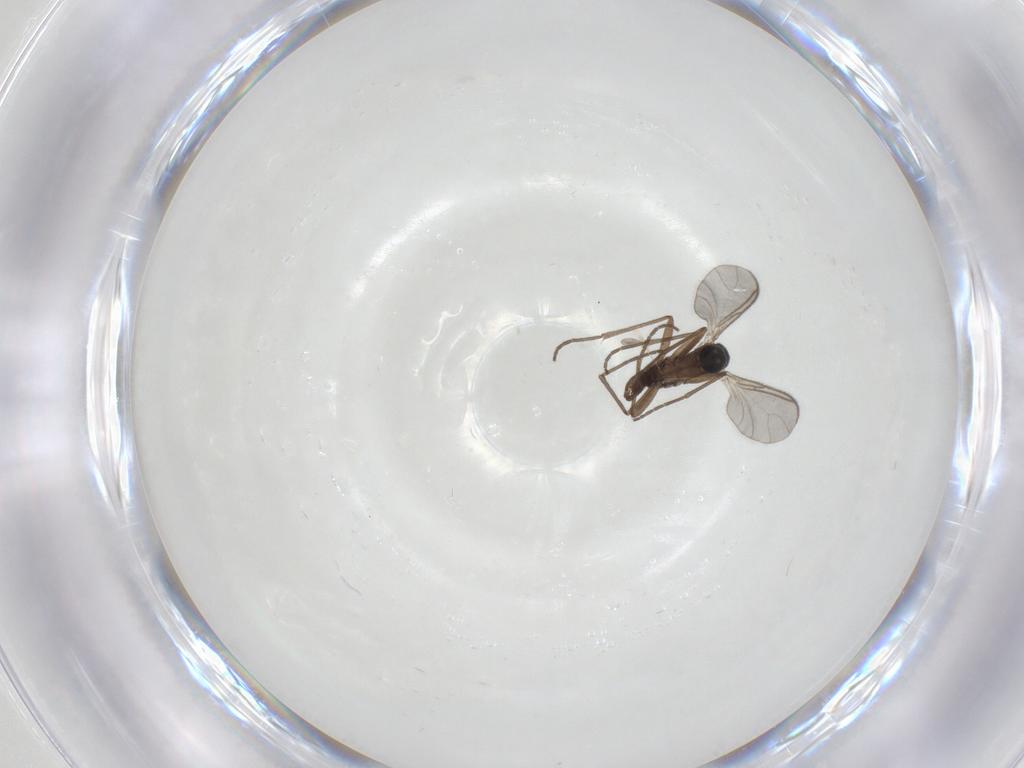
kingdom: Animalia
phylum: Arthropoda
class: Insecta
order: Diptera
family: Sciaridae
